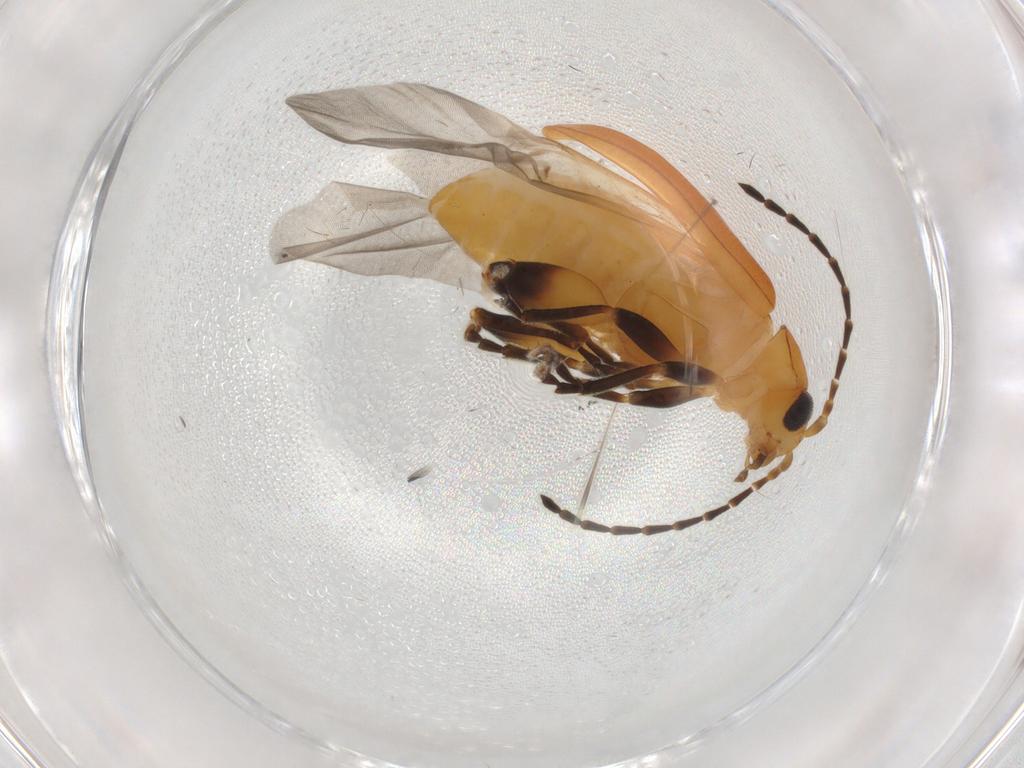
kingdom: Animalia
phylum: Arthropoda
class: Insecta
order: Coleoptera
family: Chrysomelidae
